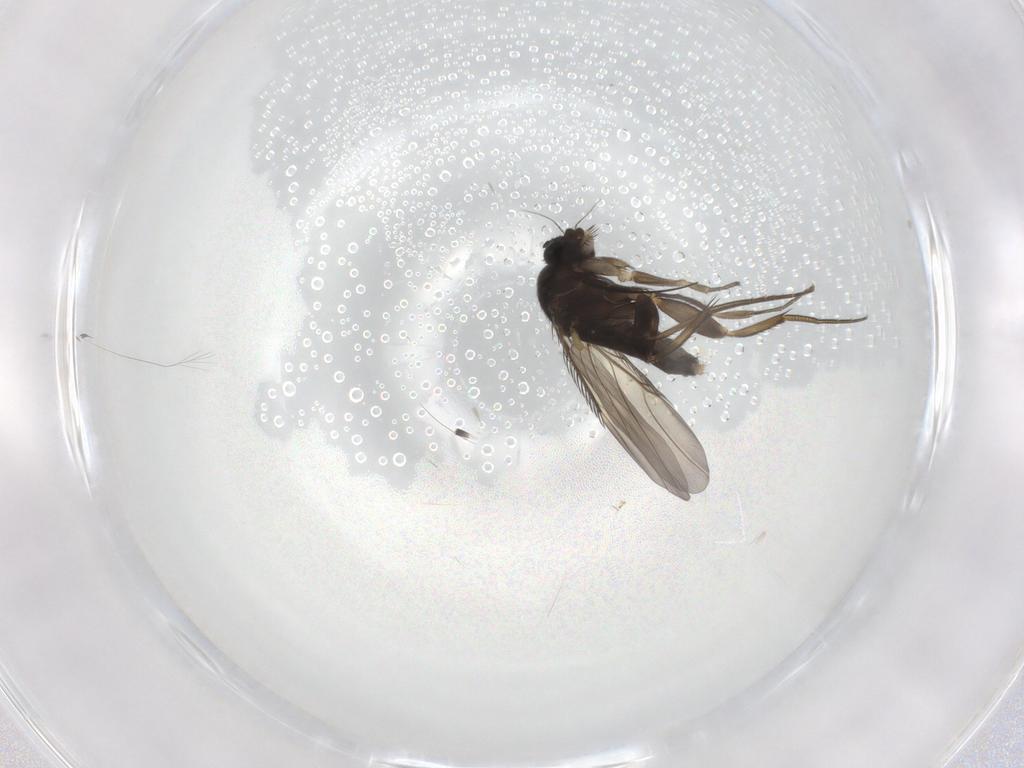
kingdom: Animalia
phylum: Arthropoda
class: Insecta
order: Diptera
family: Phoridae
